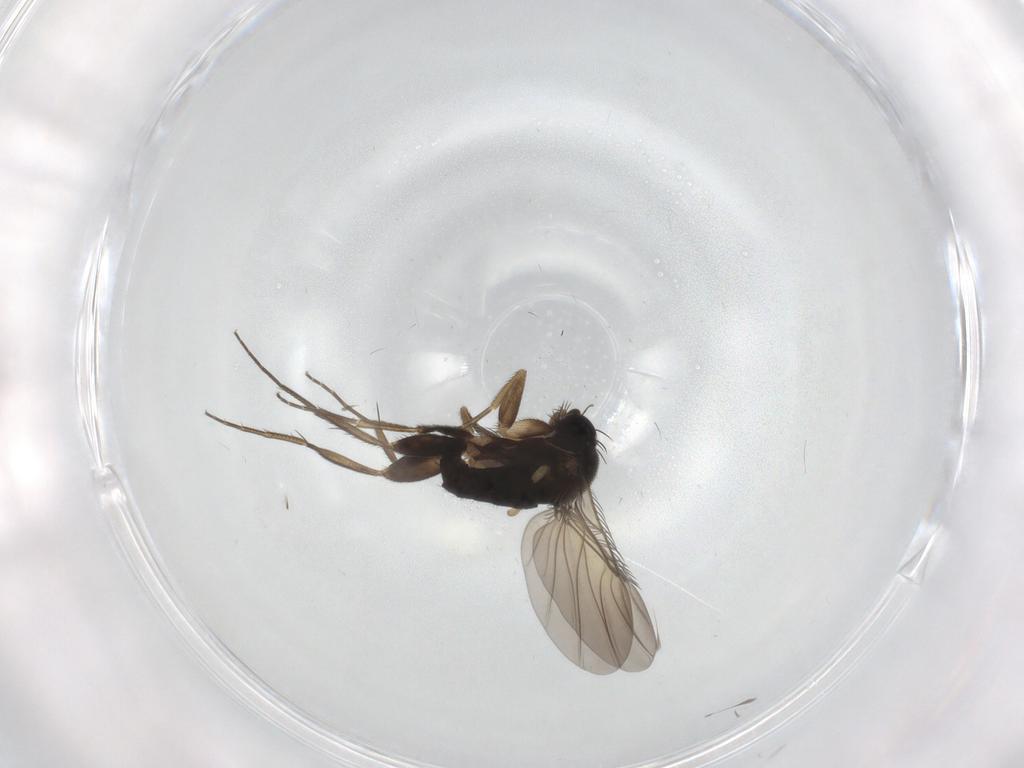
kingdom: Animalia
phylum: Arthropoda
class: Insecta
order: Diptera
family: Phoridae
